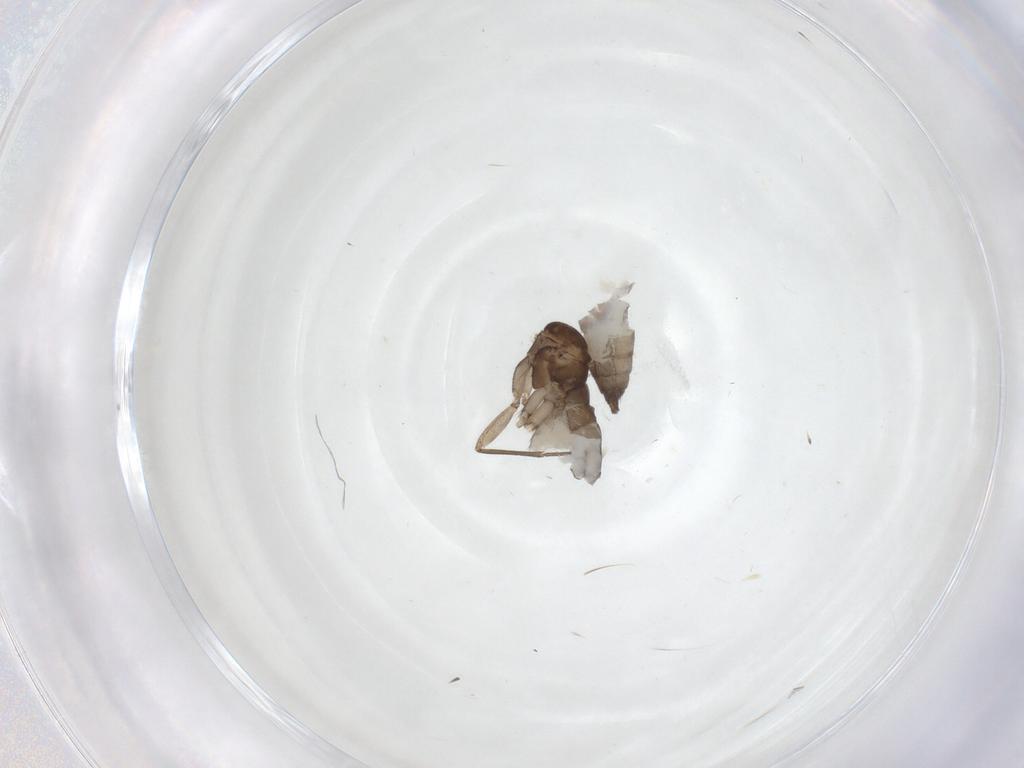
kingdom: Animalia
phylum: Arthropoda
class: Insecta
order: Diptera
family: Sciaridae
